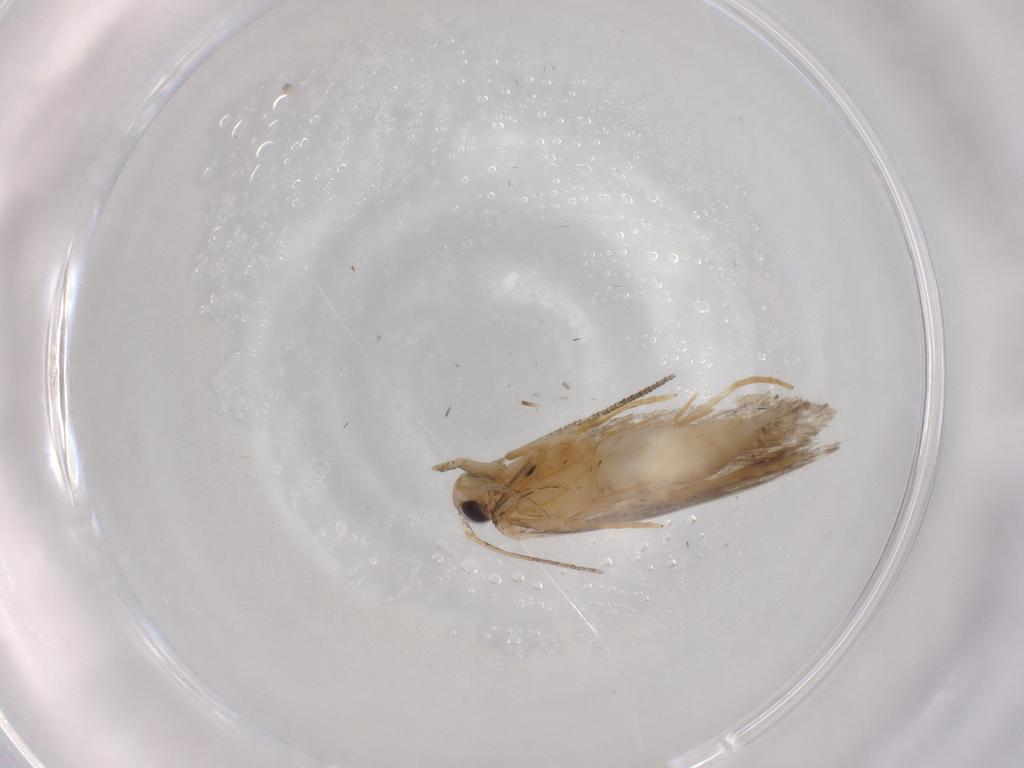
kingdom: Animalia
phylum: Arthropoda
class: Insecta
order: Lepidoptera
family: Autostichidae
